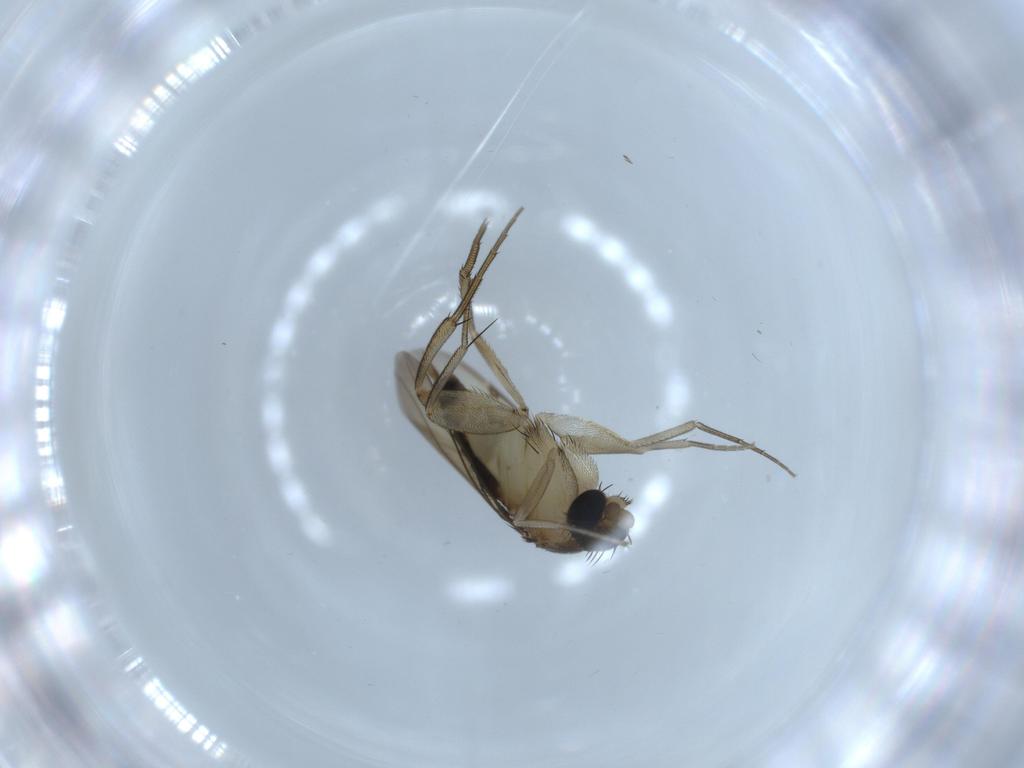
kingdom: Animalia
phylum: Arthropoda
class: Insecta
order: Diptera
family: Phoridae
